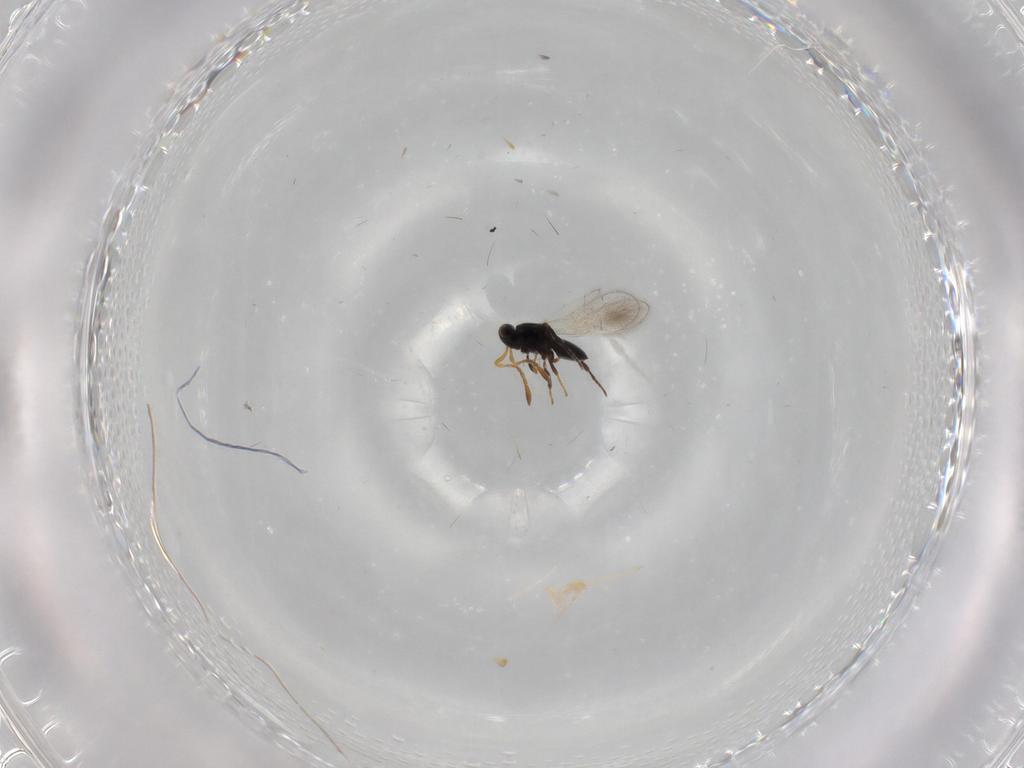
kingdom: Animalia
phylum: Arthropoda
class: Insecta
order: Hymenoptera
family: Platygastridae
